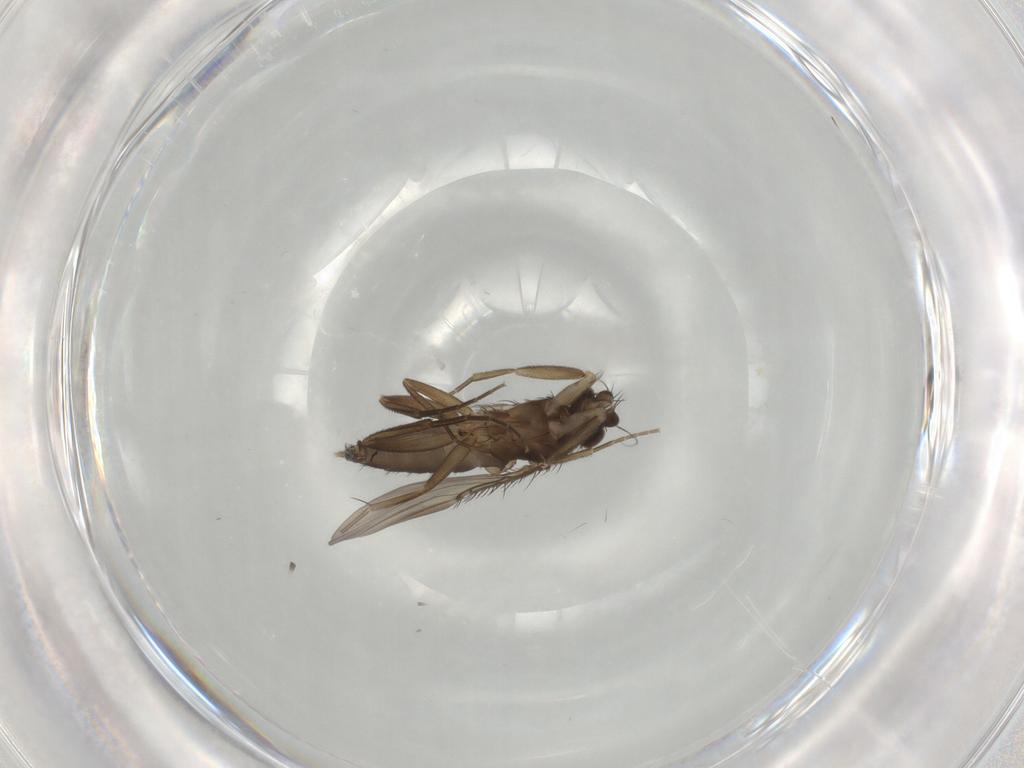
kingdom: Animalia
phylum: Arthropoda
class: Insecta
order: Diptera
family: Phoridae
